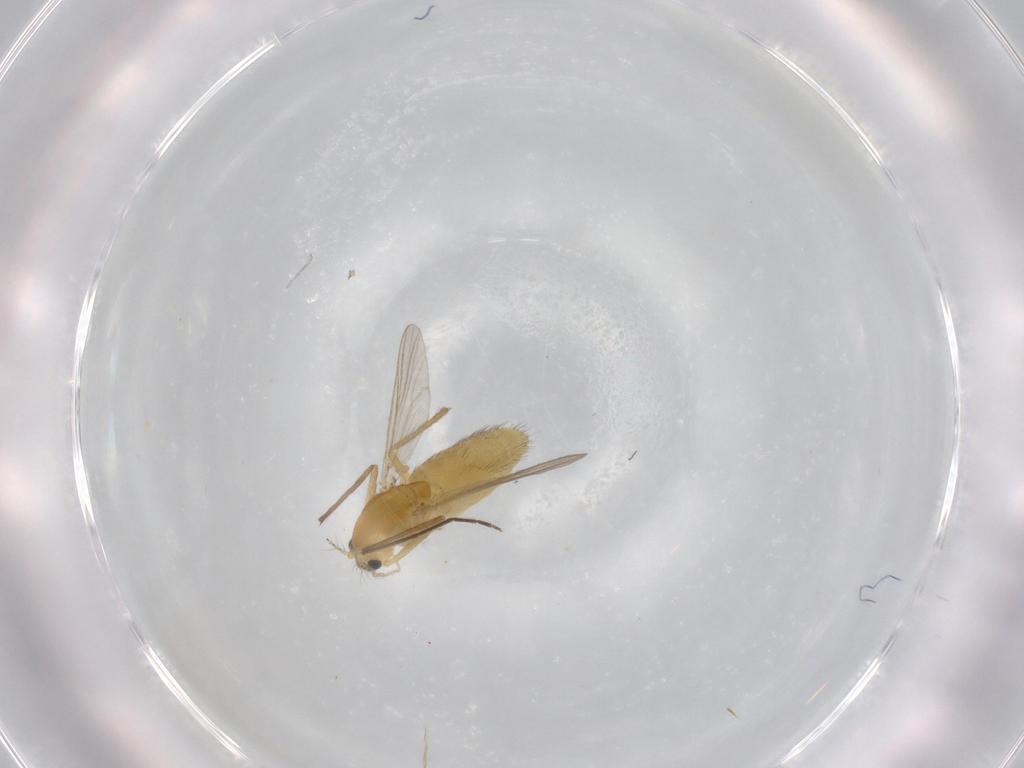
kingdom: Animalia
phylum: Arthropoda
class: Insecta
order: Diptera
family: Chironomidae
